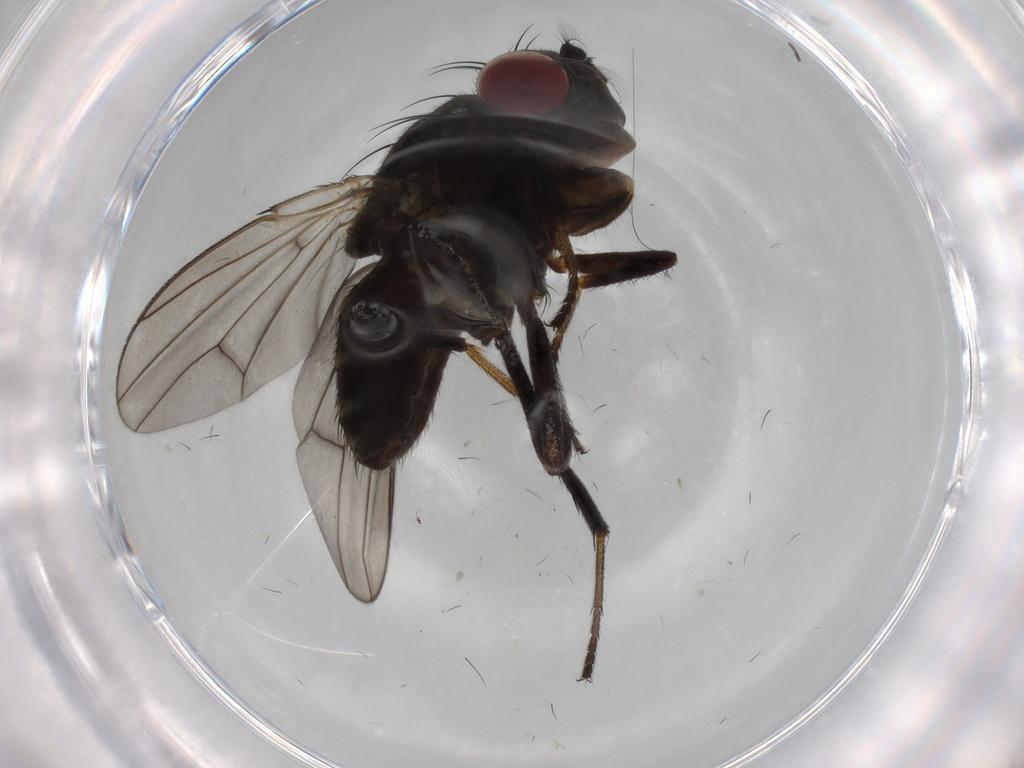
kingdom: Animalia
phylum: Arthropoda
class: Insecta
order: Diptera
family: Ephydridae
